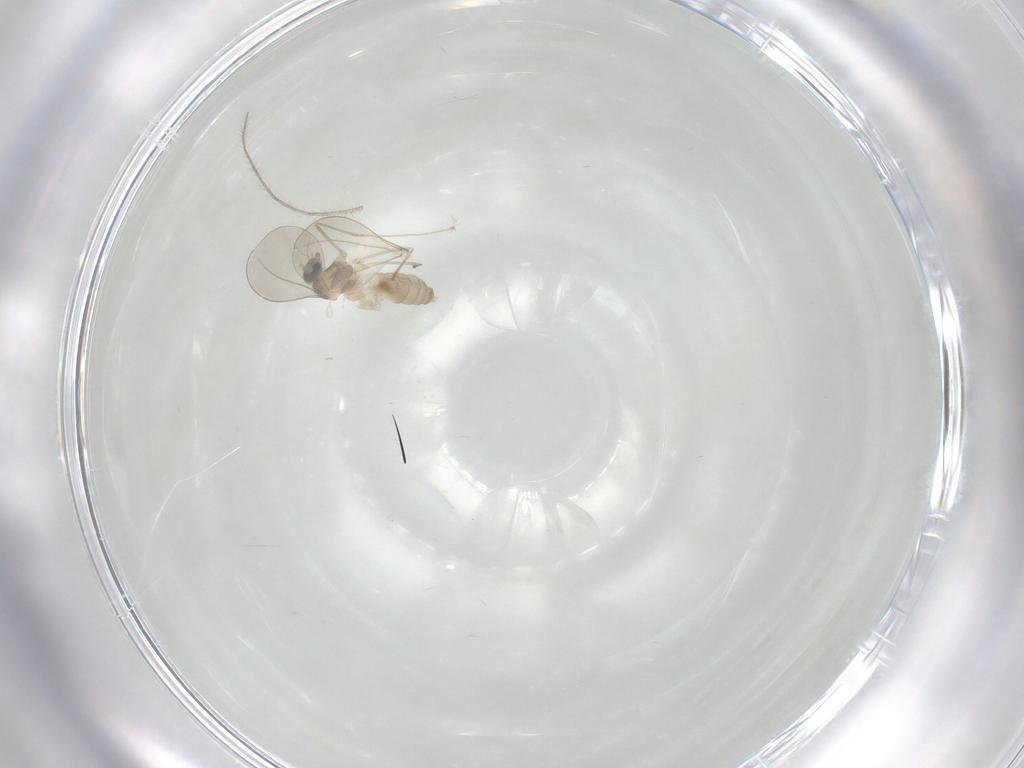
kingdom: Animalia
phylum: Arthropoda
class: Insecta
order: Diptera
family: Cecidomyiidae
